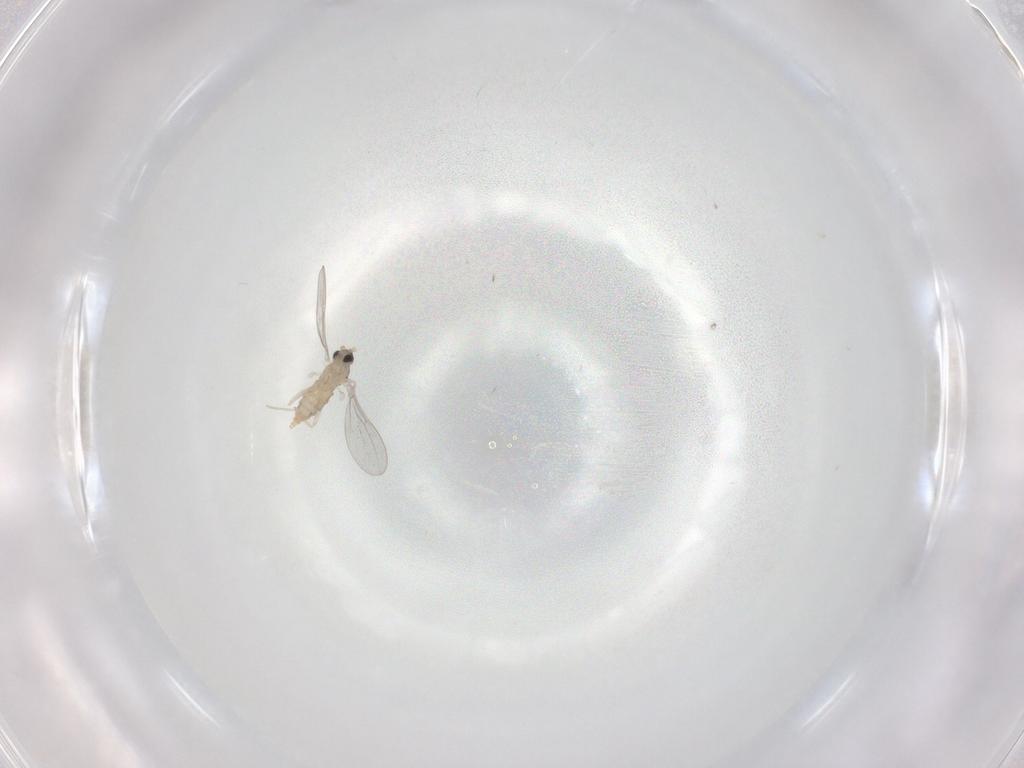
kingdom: Animalia
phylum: Arthropoda
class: Insecta
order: Diptera
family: Cecidomyiidae
